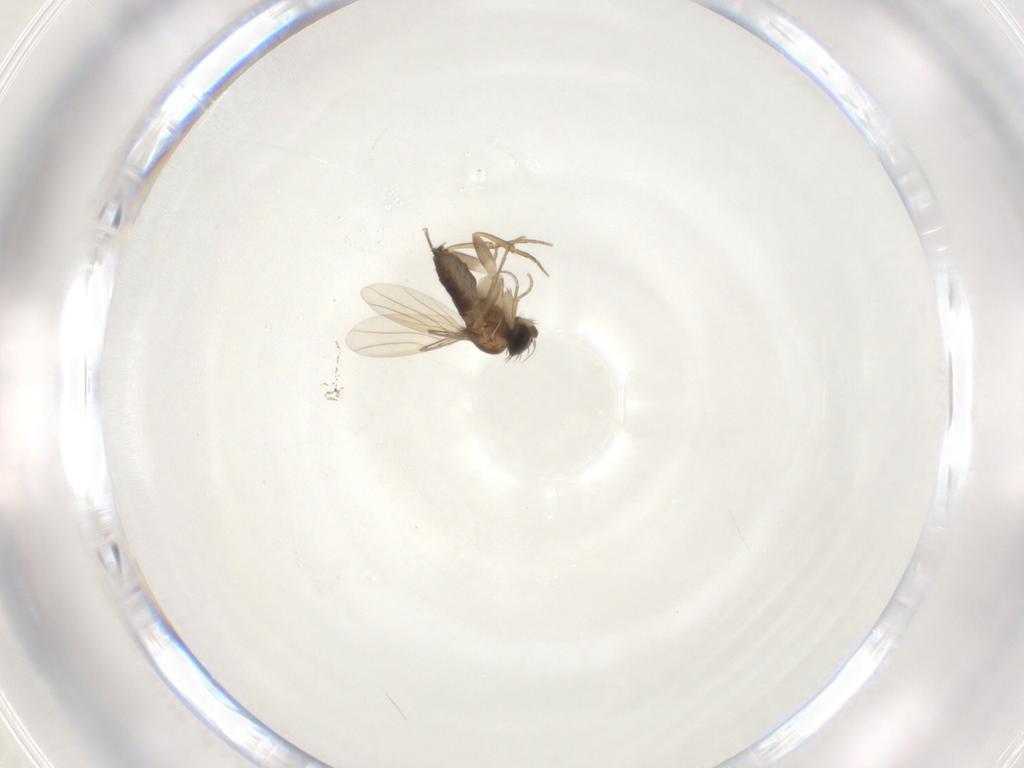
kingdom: Animalia
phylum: Arthropoda
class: Insecta
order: Diptera
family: Phoridae
